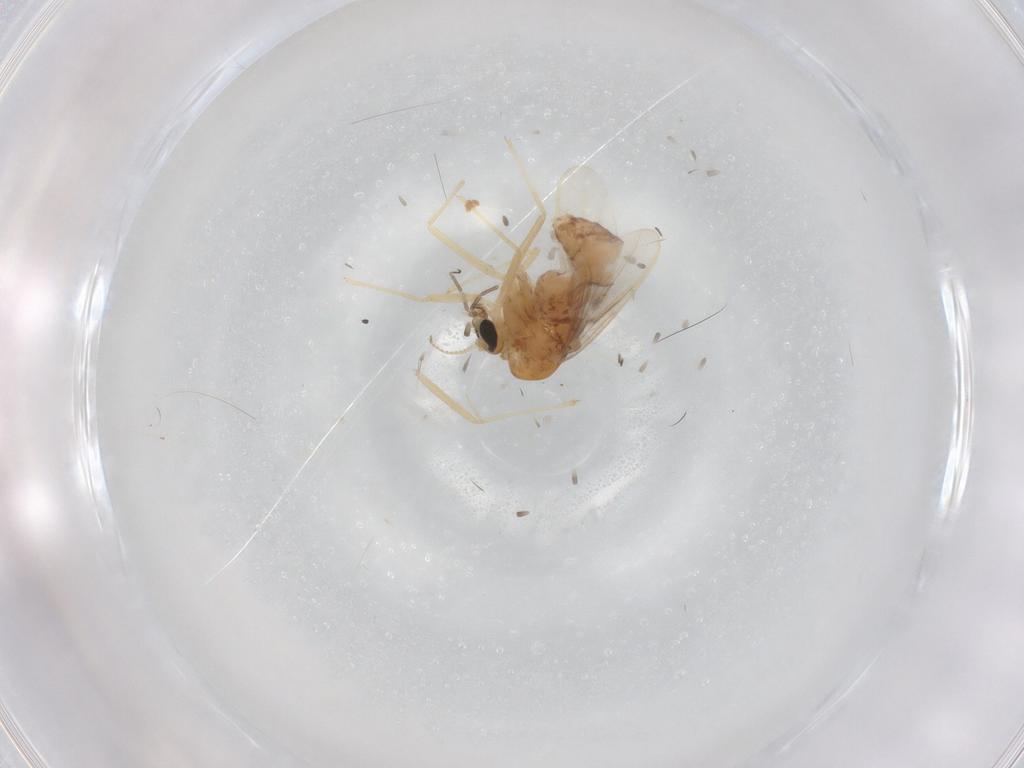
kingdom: Animalia
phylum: Arthropoda
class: Insecta
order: Diptera
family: Chironomidae
